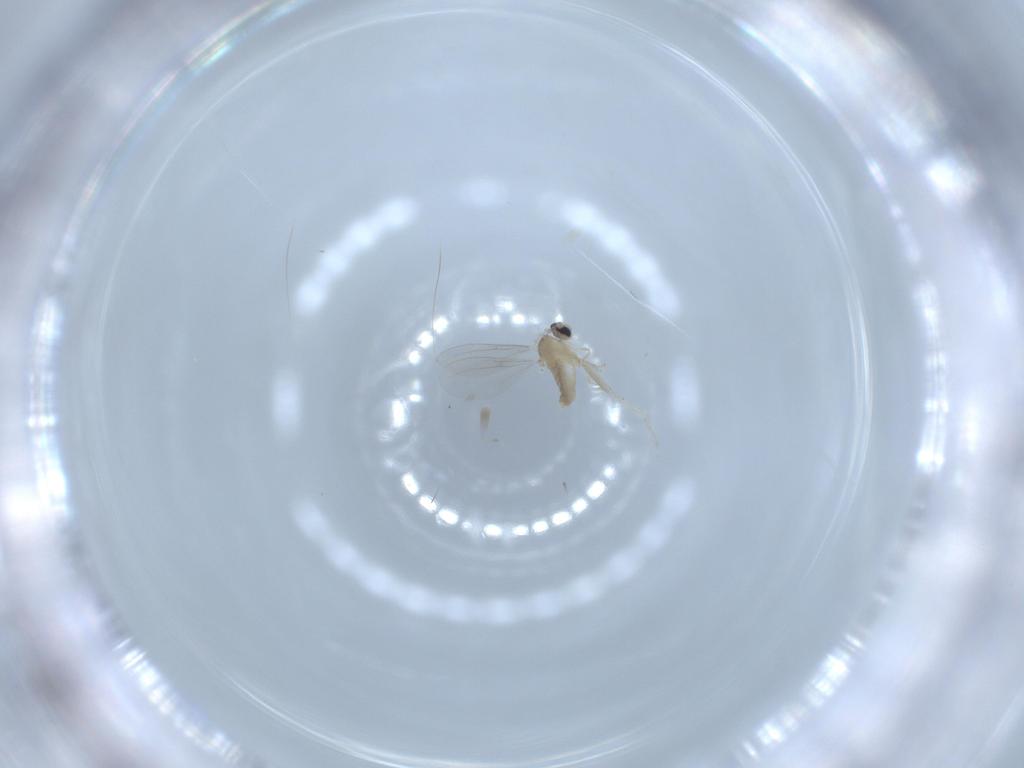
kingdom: Animalia
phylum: Arthropoda
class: Insecta
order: Diptera
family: Cecidomyiidae
